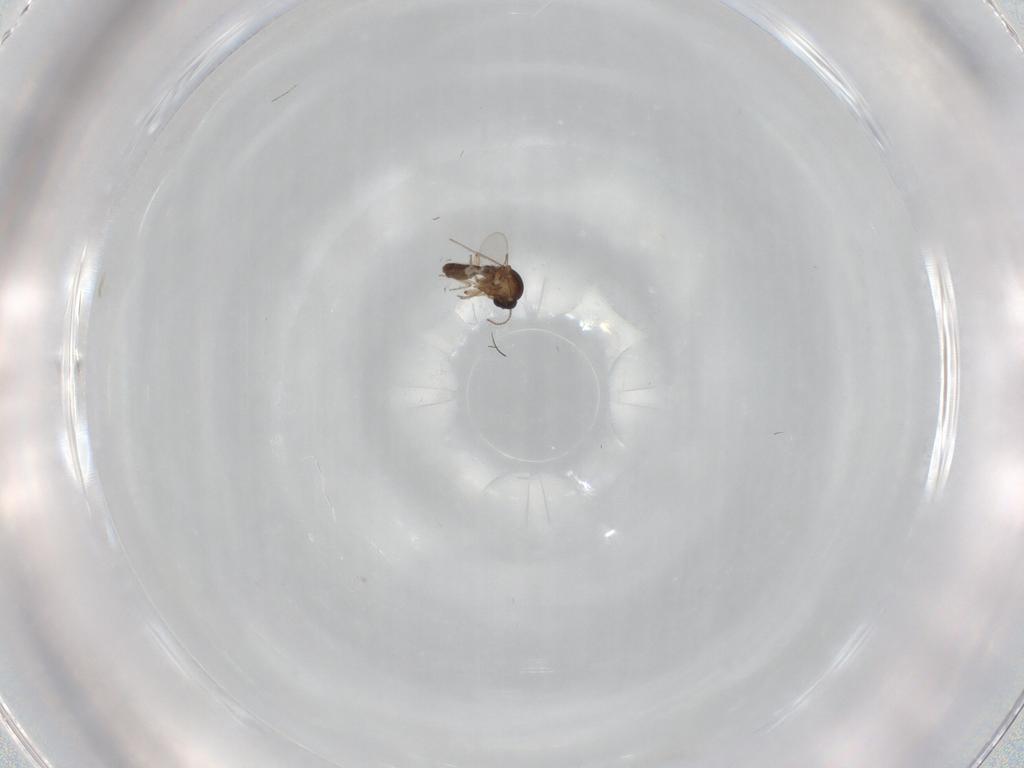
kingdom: Animalia
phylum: Arthropoda
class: Insecta
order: Diptera
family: Ceratopogonidae
